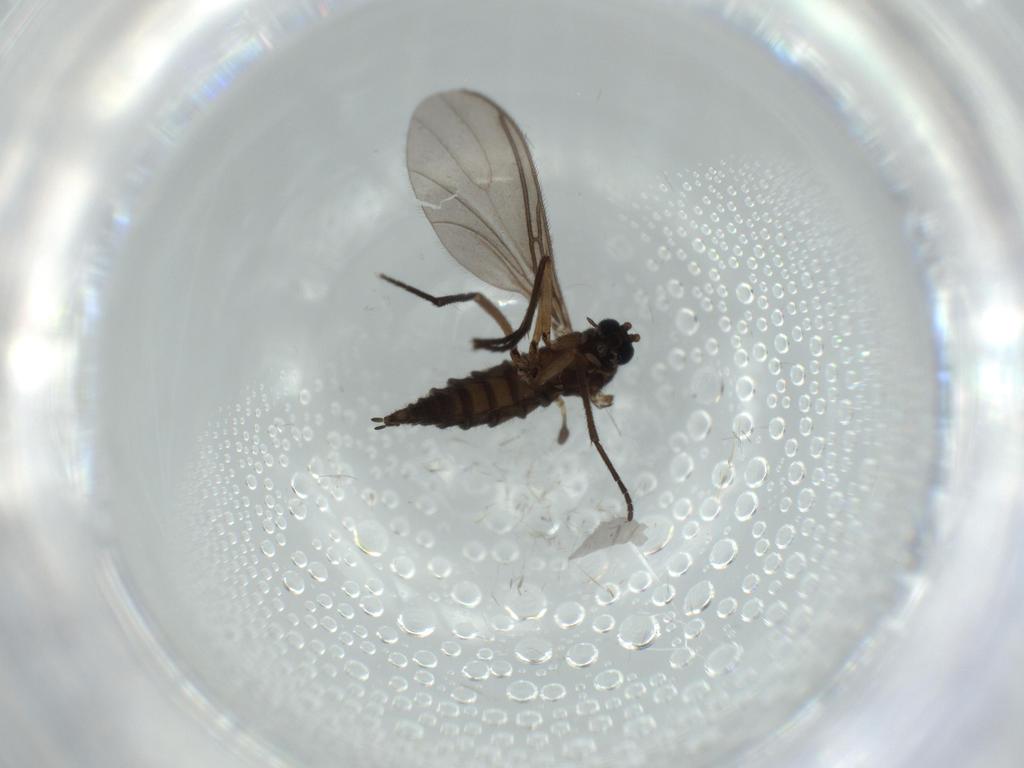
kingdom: Animalia
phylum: Arthropoda
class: Insecta
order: Diptera
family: Sciaridae
